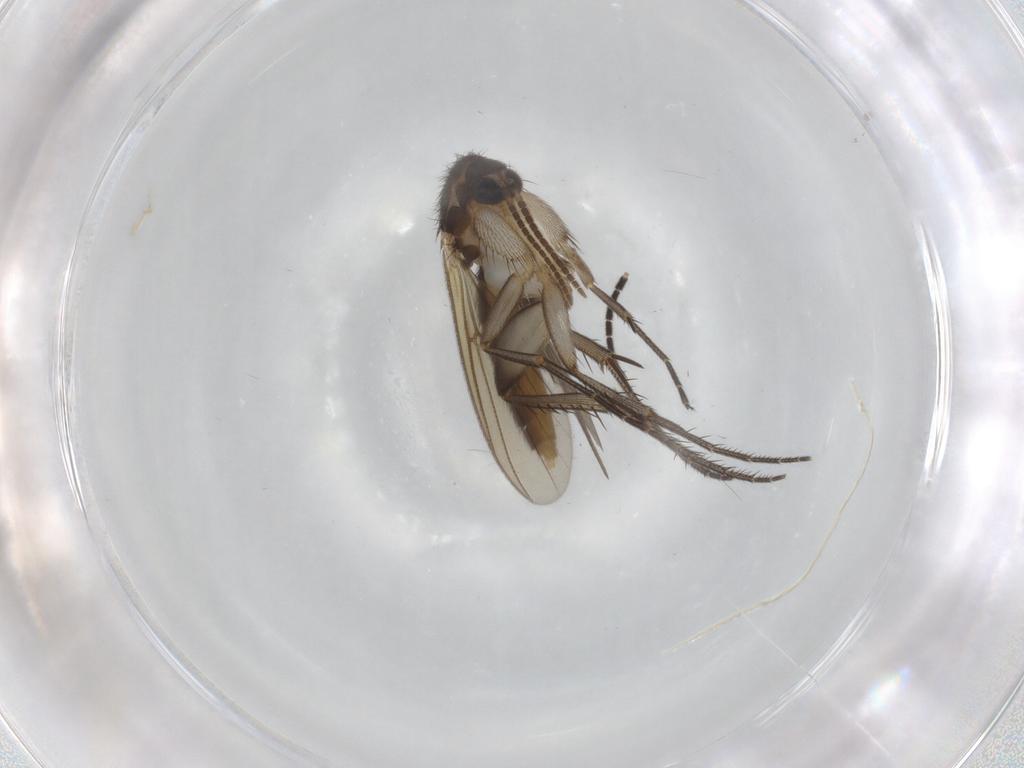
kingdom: Animalia
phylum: Arthropoda
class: Insecta
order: Diptera
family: Mycetophilidae
